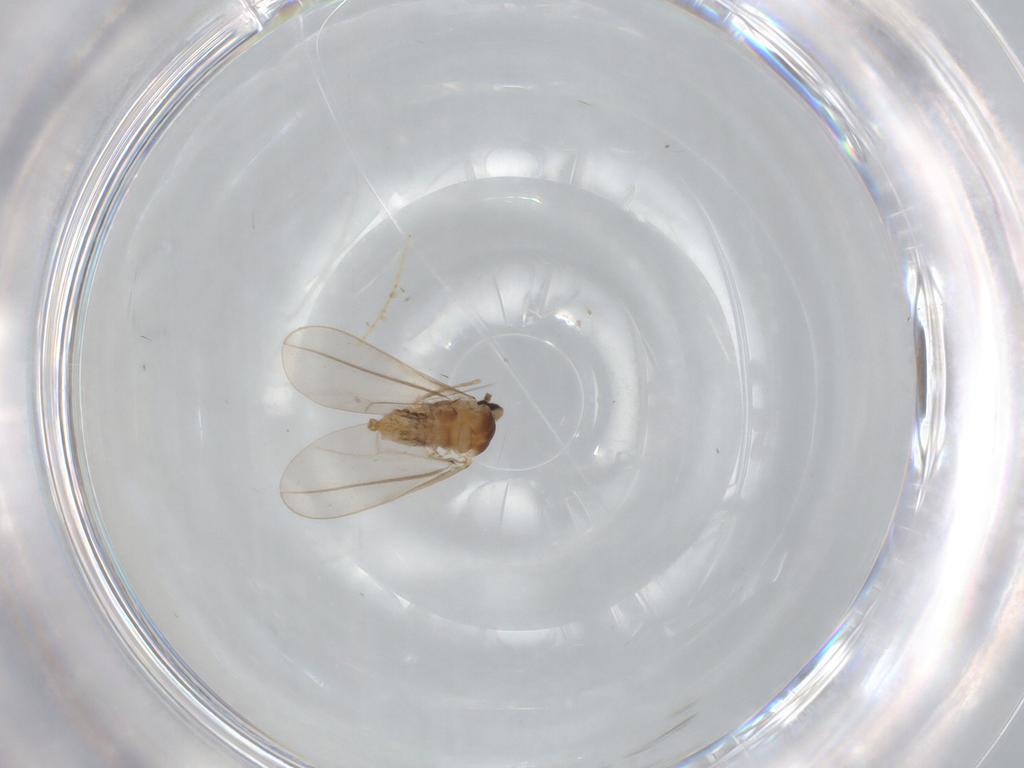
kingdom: Animalia
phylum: Arthropoda
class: Insecta
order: Diptera
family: Cecidomyiidae
